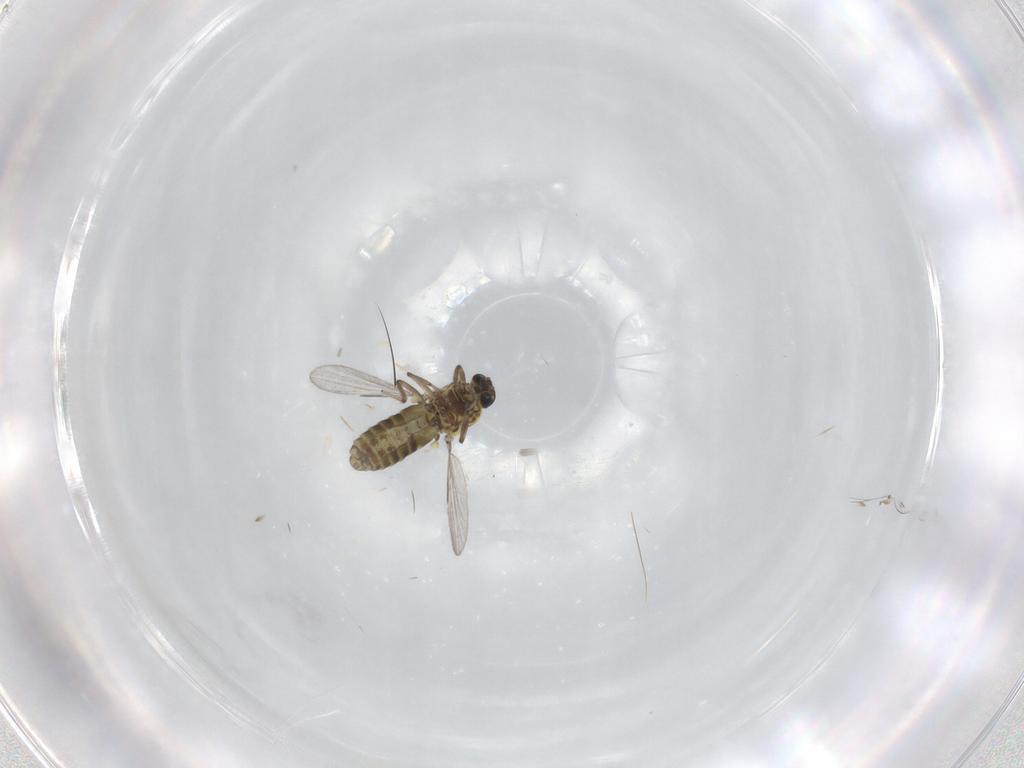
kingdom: Animalia
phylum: Arthropoda
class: Insecta
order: Diptera
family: Ceratopogonidae
